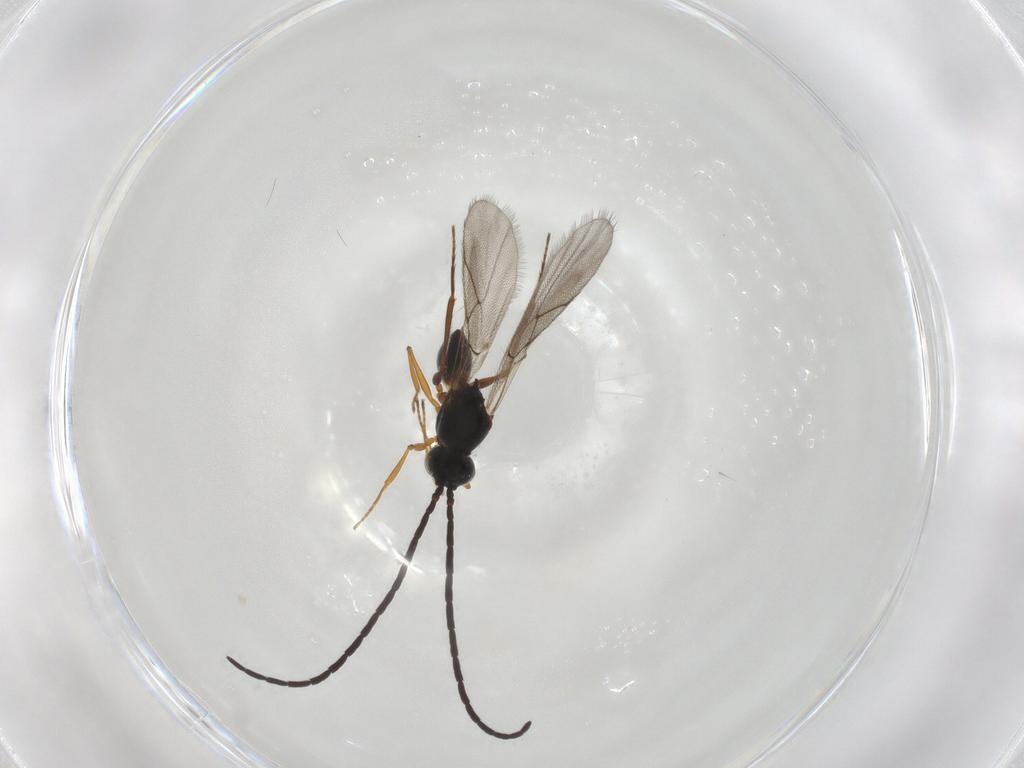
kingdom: Animalia
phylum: Arthropoda
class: Insecta
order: Hymenoptera
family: Figitidae
